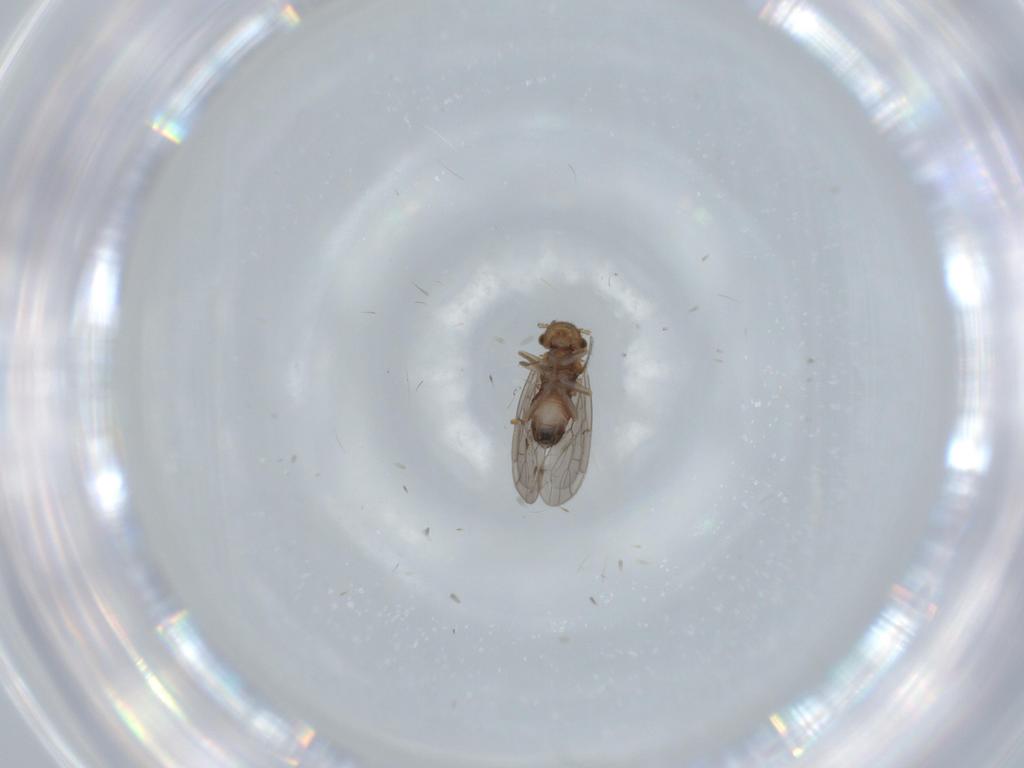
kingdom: Animalia
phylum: Arthropoda
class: Insecta
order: Psocodea
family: Ectopsocidae
